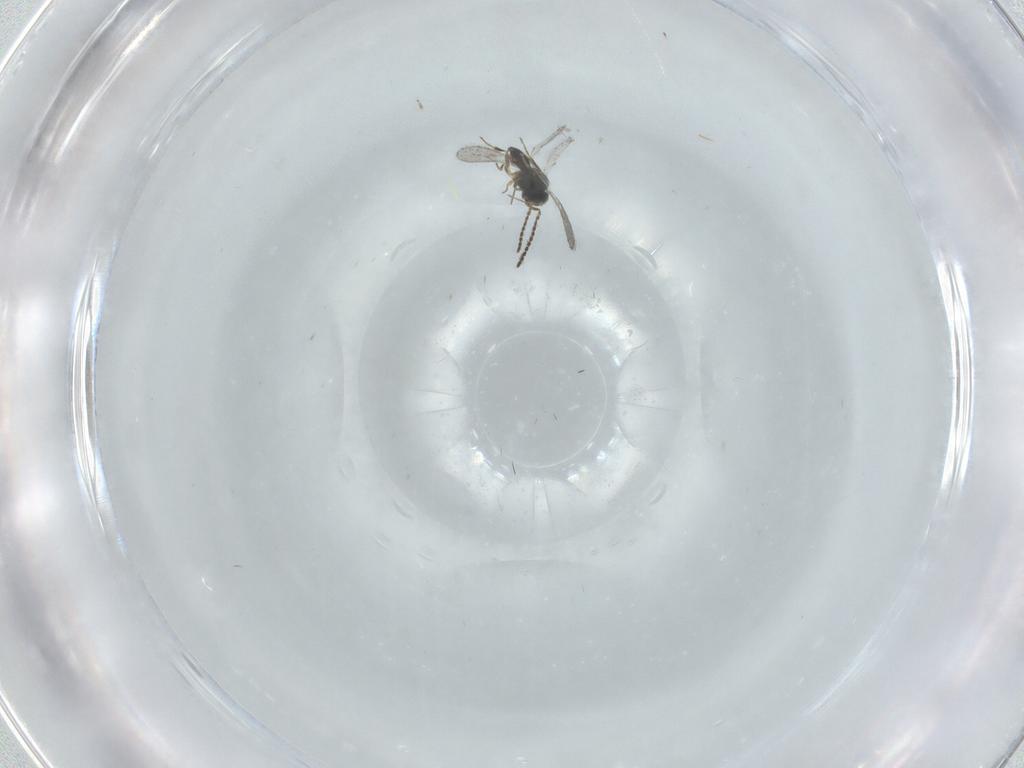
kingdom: Animalia
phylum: Arthropoda
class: Insecta
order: Hymenoptera
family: Scelionidae
